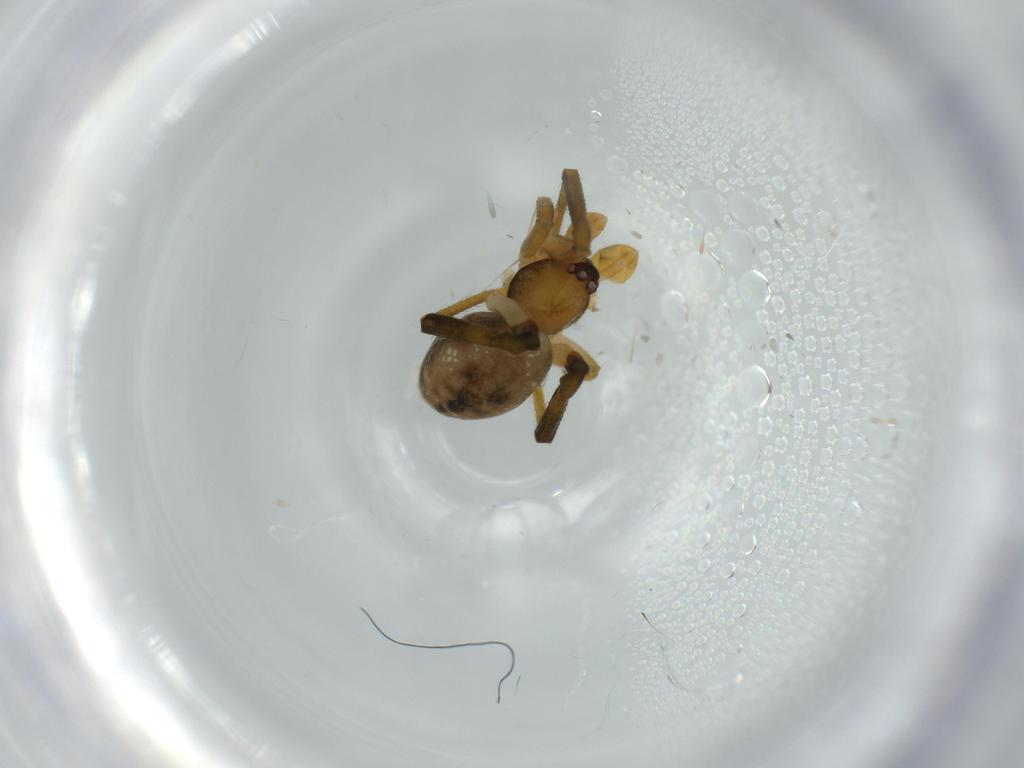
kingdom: Animalia
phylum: Arthropoda
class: Arachnida
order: Araneae
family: Theridiidae
